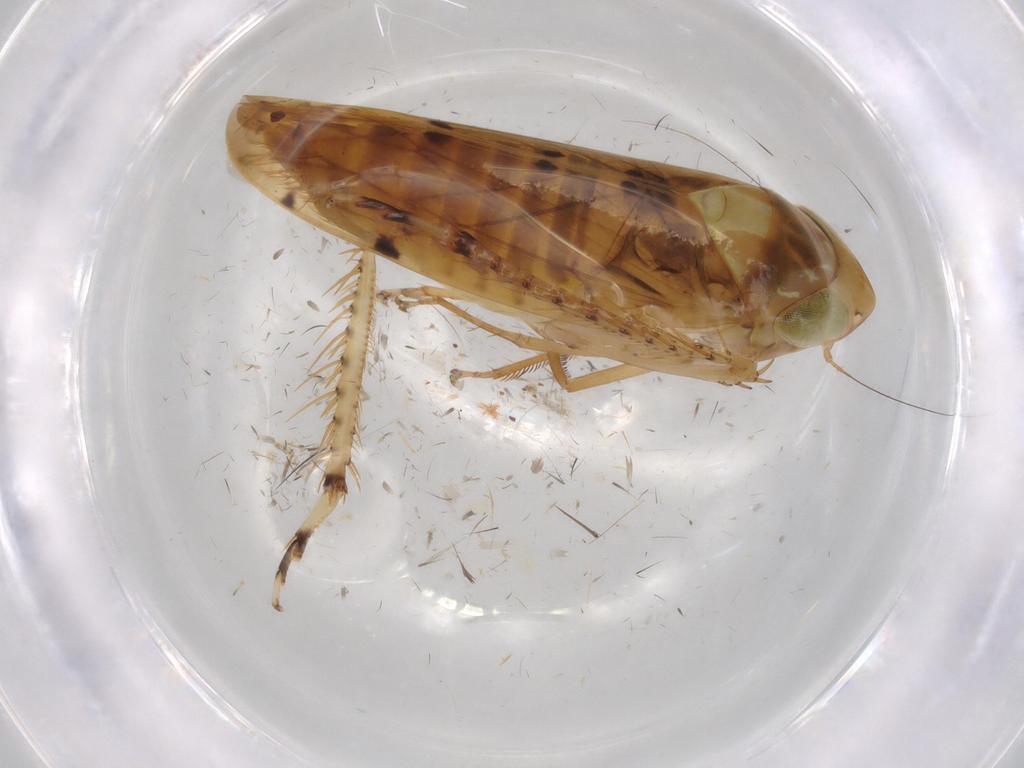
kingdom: Animalia
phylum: Arthropoda
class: Insecta
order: Hemiptera
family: Cicadellidae
